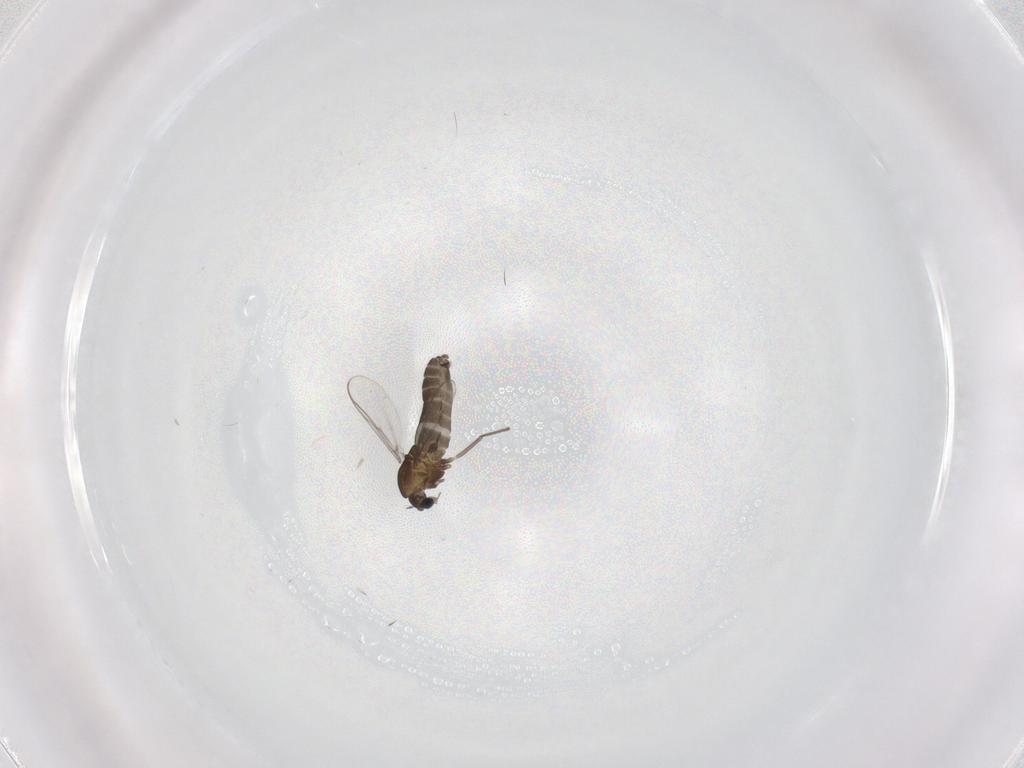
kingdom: Animalia
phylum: Arthropoda
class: Insecta
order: Diptera
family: Chironomidae
